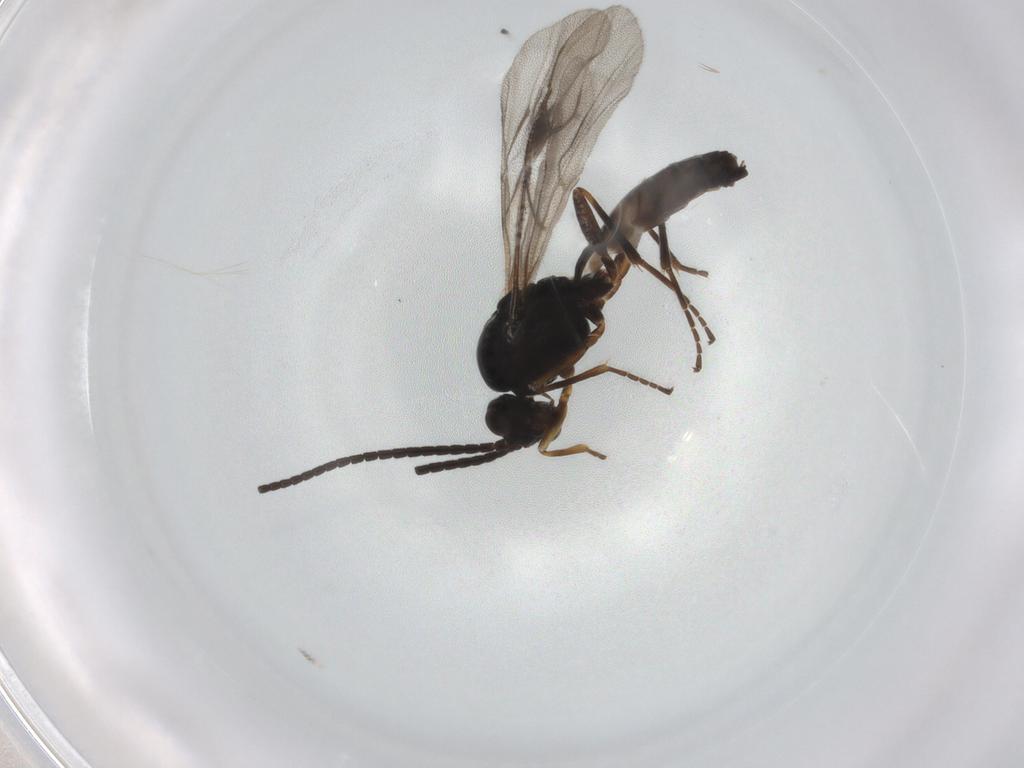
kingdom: Animalia
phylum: Arthropoda
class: Insecta
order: Hymenoptera
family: Braconidae
